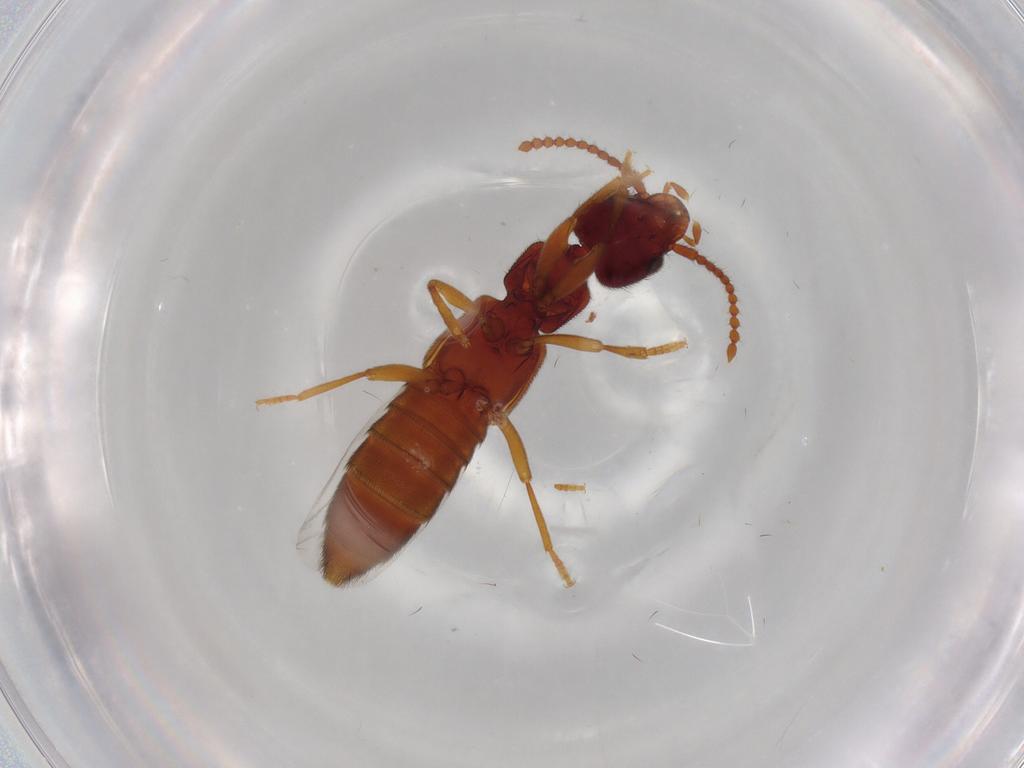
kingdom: Animalia
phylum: Arthropoda
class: Insecta
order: Coleoptera
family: Staphylinidae
